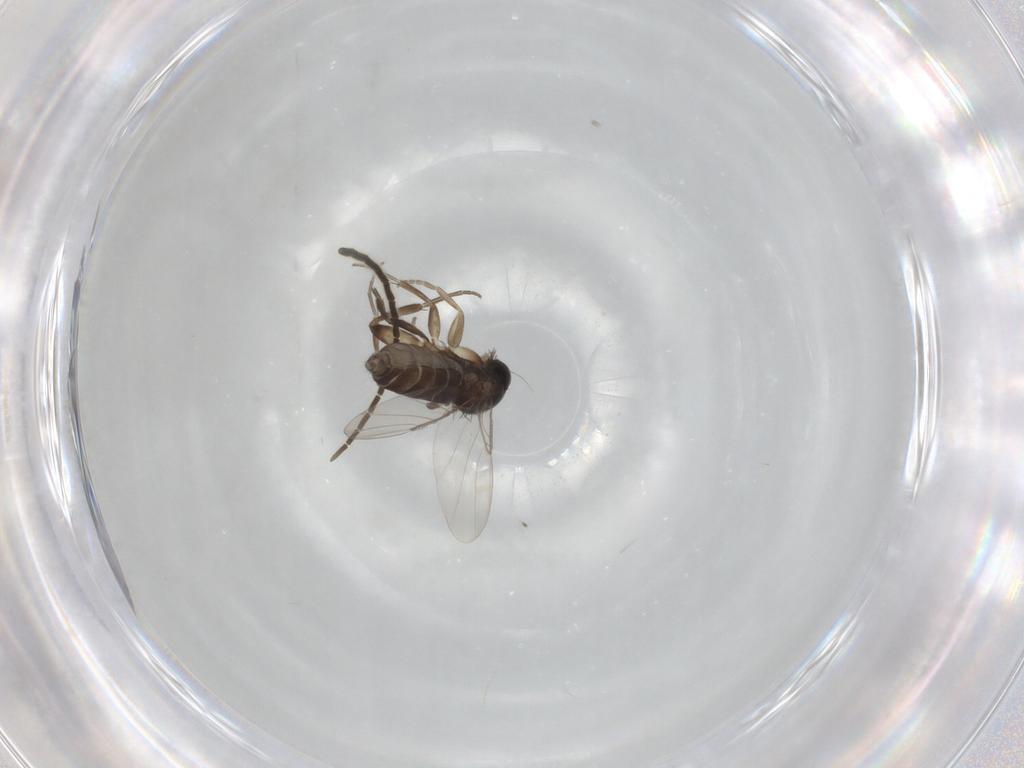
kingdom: Animalia
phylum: Arthropoda
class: Insecta
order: Diptera
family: Phoridae
